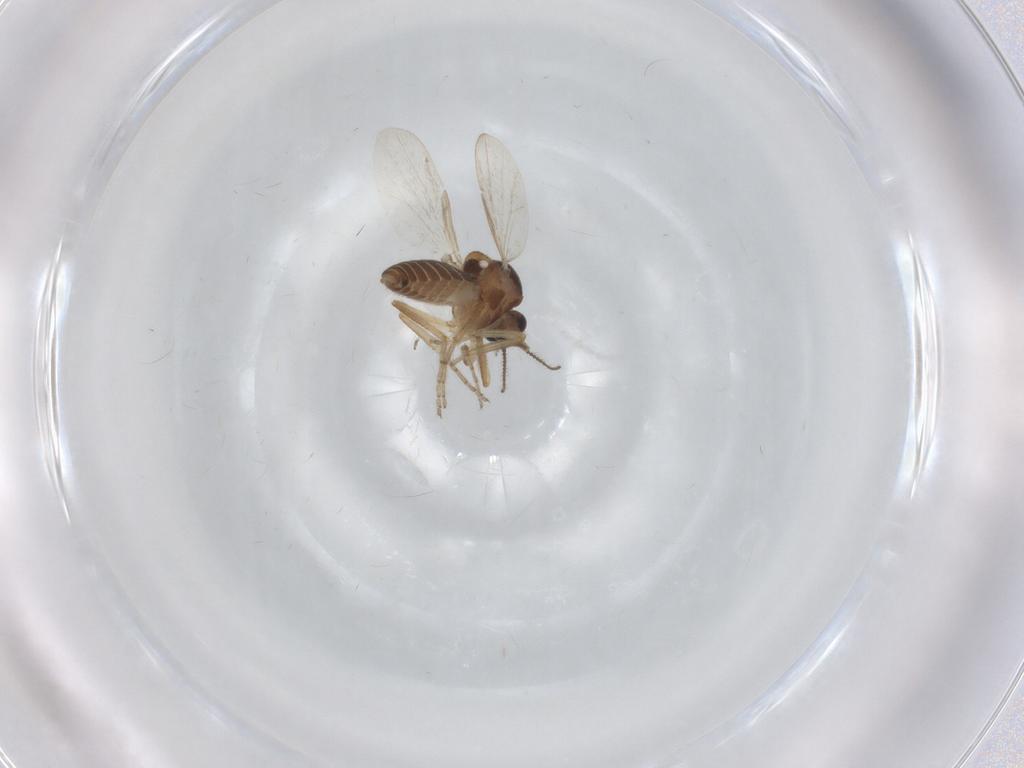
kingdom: Animalia
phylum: Arthropoda
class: Insecta
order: Diptera
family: Ceratopogonidae
